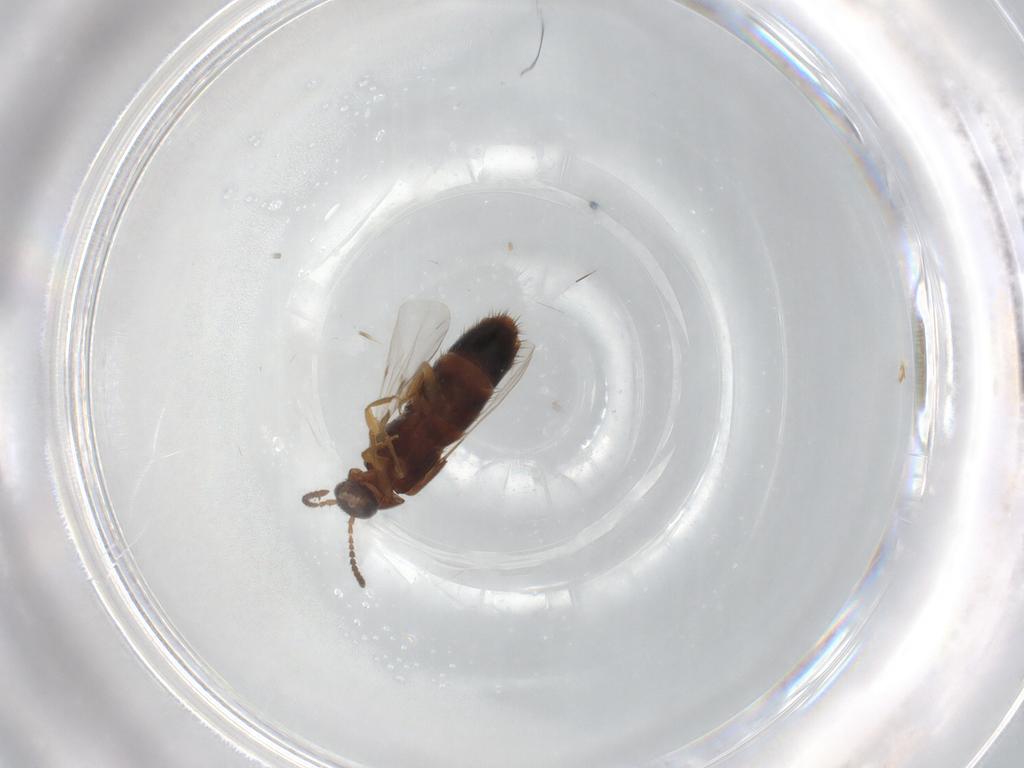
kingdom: Animalia
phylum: Arthropoda
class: Insecta
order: Coleoptera
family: Staphylinidae
